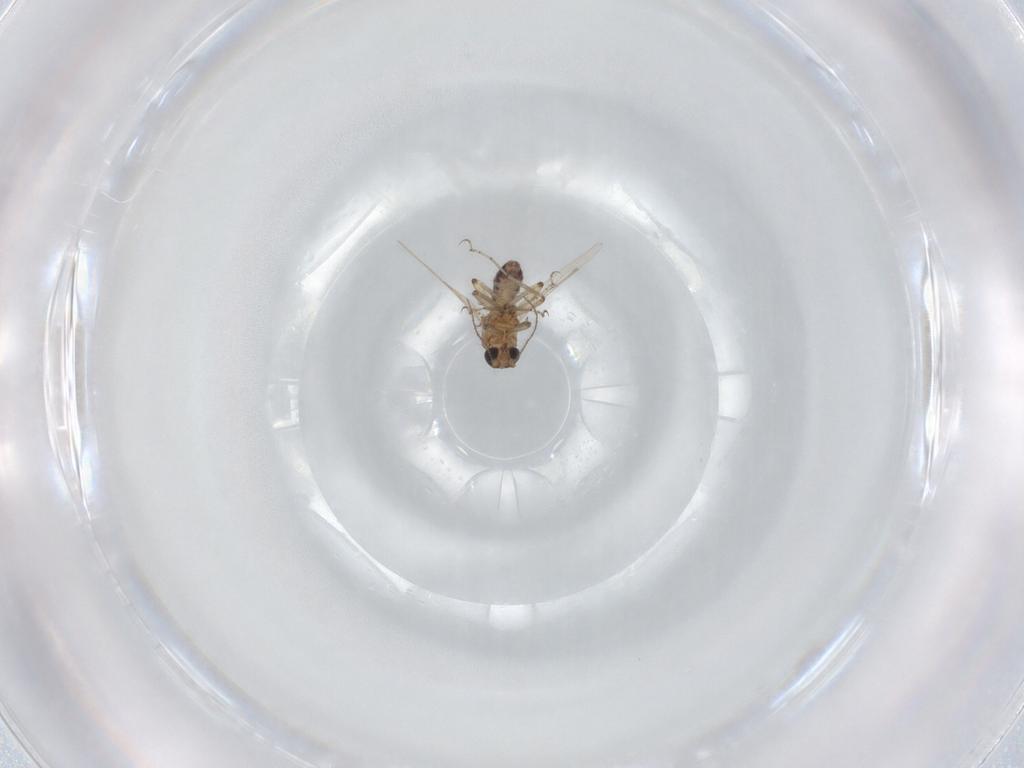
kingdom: Animalia
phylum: Arthropoda
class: Insecta
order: Diptera
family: Ceratopogonidae
